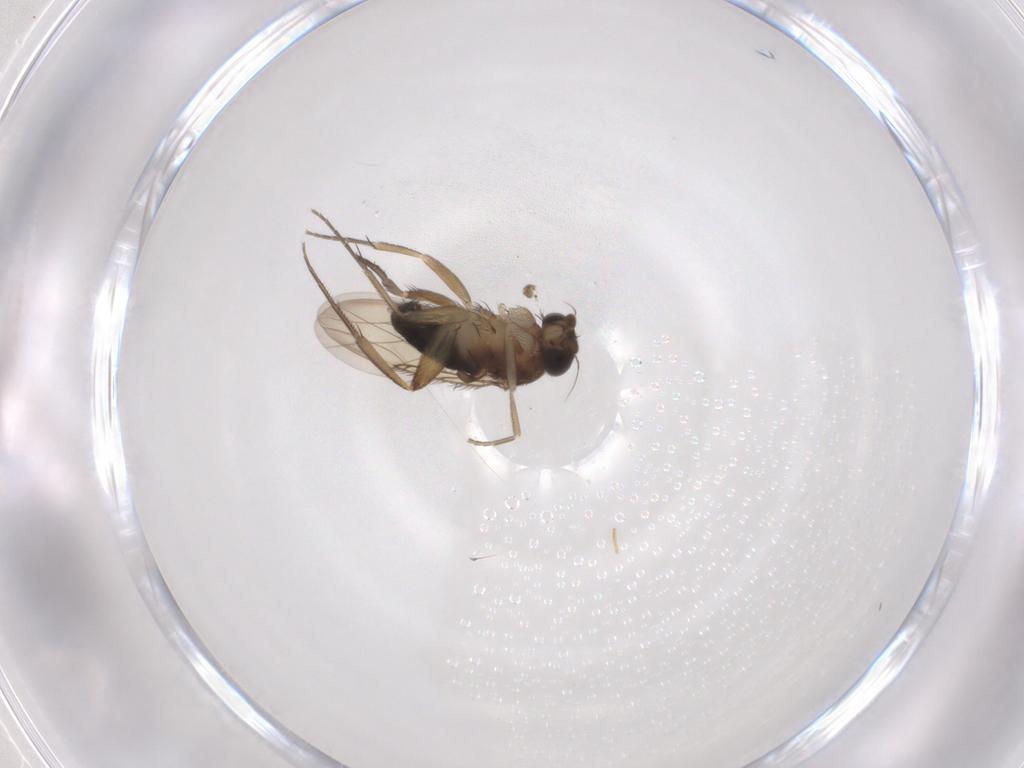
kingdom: Animalia
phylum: Arthropoda
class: Insecta
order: Diptera
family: Phoridae
